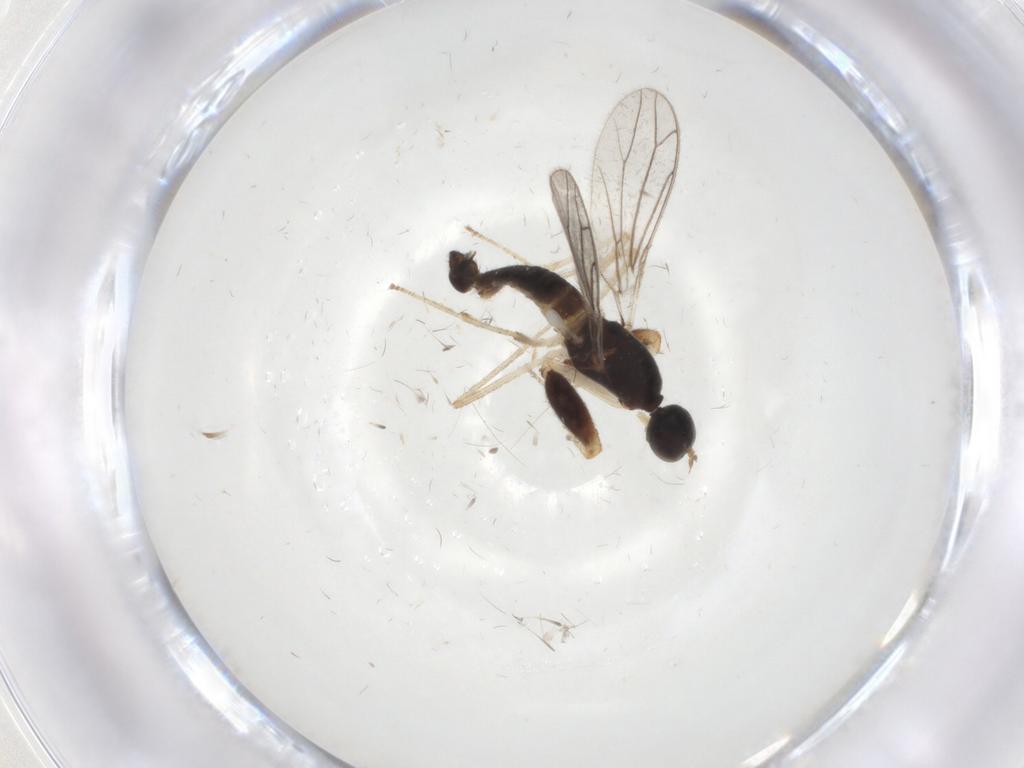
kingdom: Animalia
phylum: Arthropoda
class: Insecta
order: Diptera
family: Empididae
